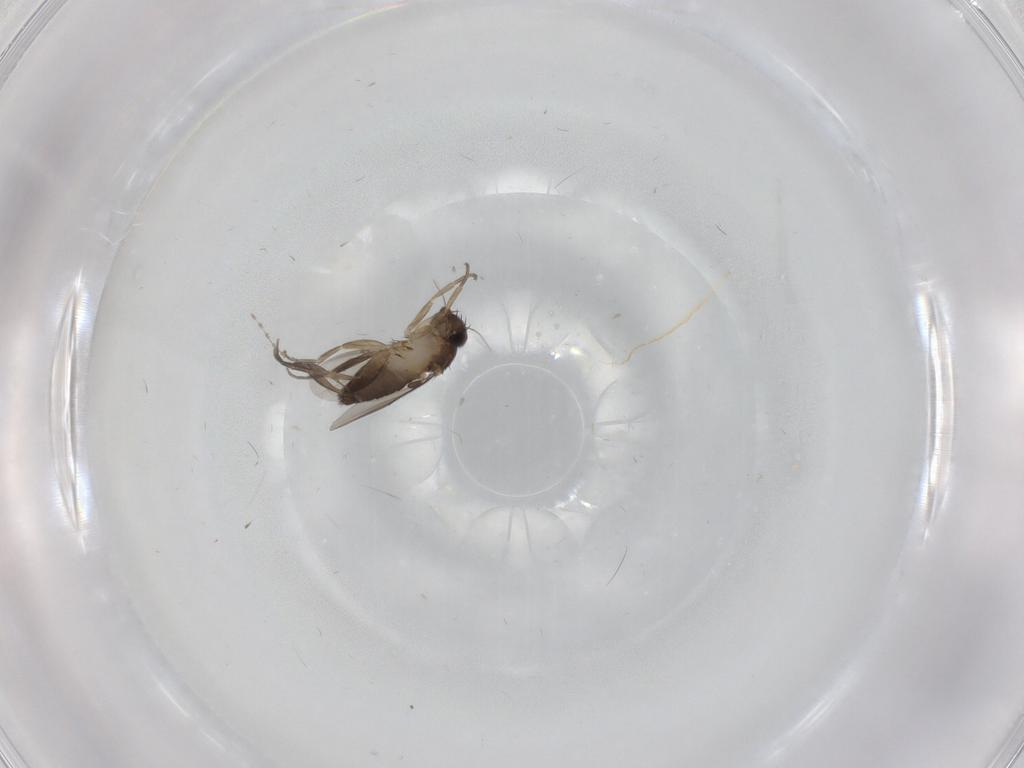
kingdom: Animalia
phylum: Arthropoda
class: Insecta
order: Diptera
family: Phoridae
